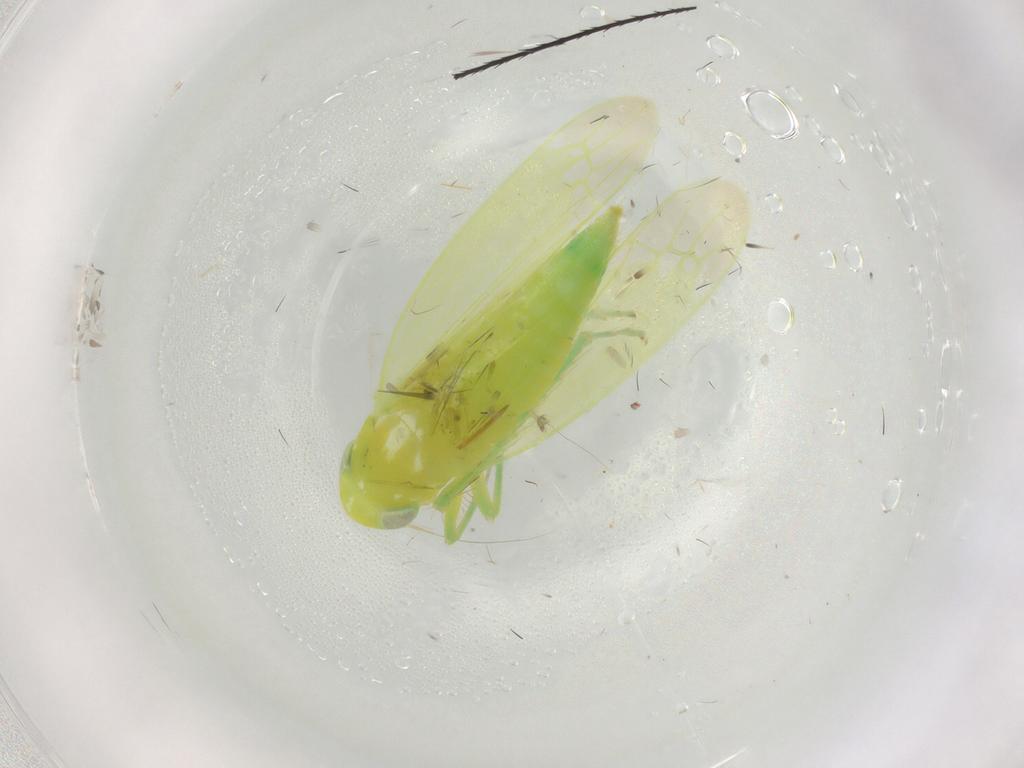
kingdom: Animalia
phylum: Arthropoda
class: Insecta
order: Hemiptera
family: Cicadellidae
